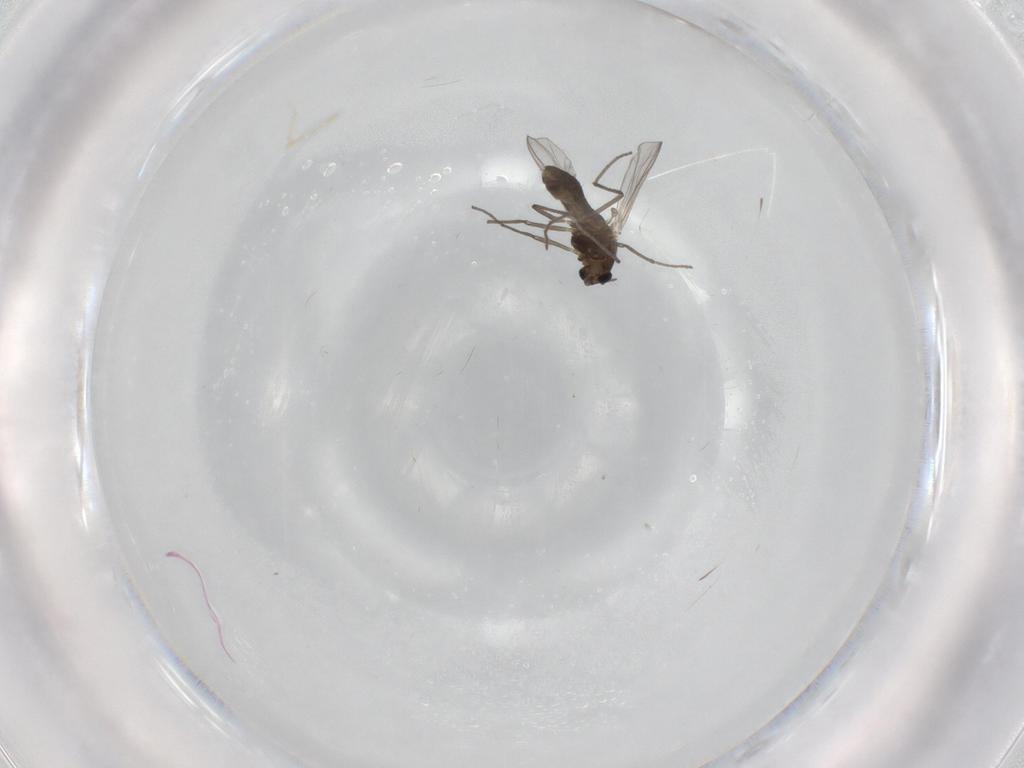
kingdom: Animalia
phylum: Arthropoda
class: Insecta
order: Diptera
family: Chironomidae
